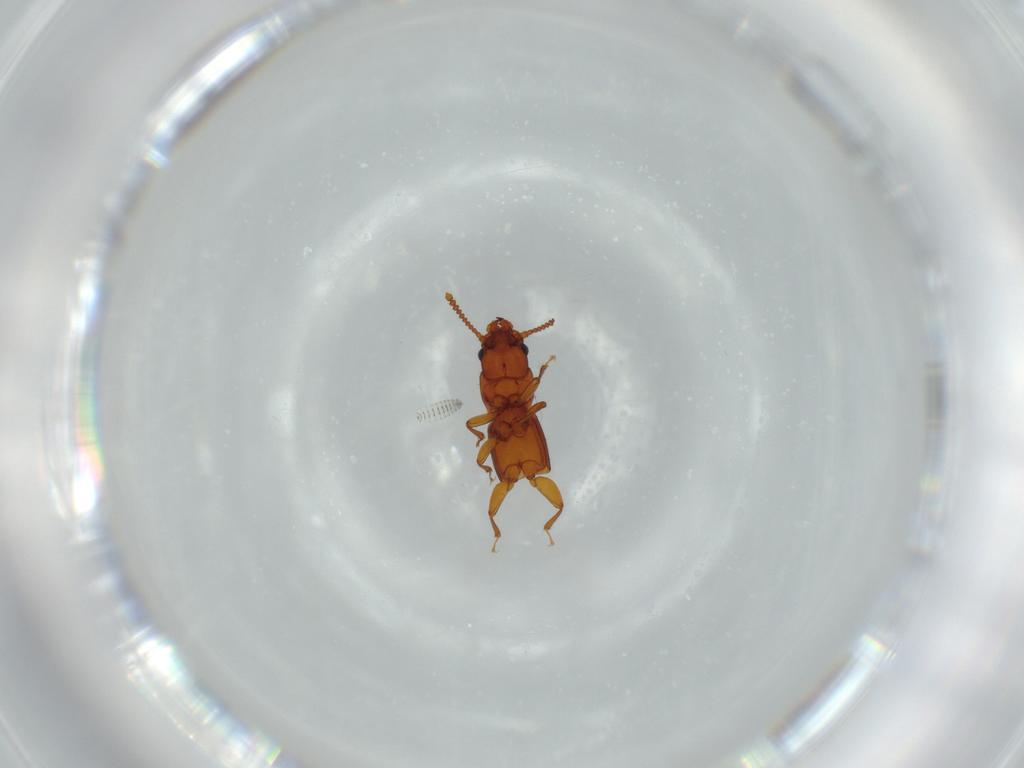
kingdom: Animalia
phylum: Arthropoda
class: Insecta
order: Coleoptera
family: Staphylinidae
